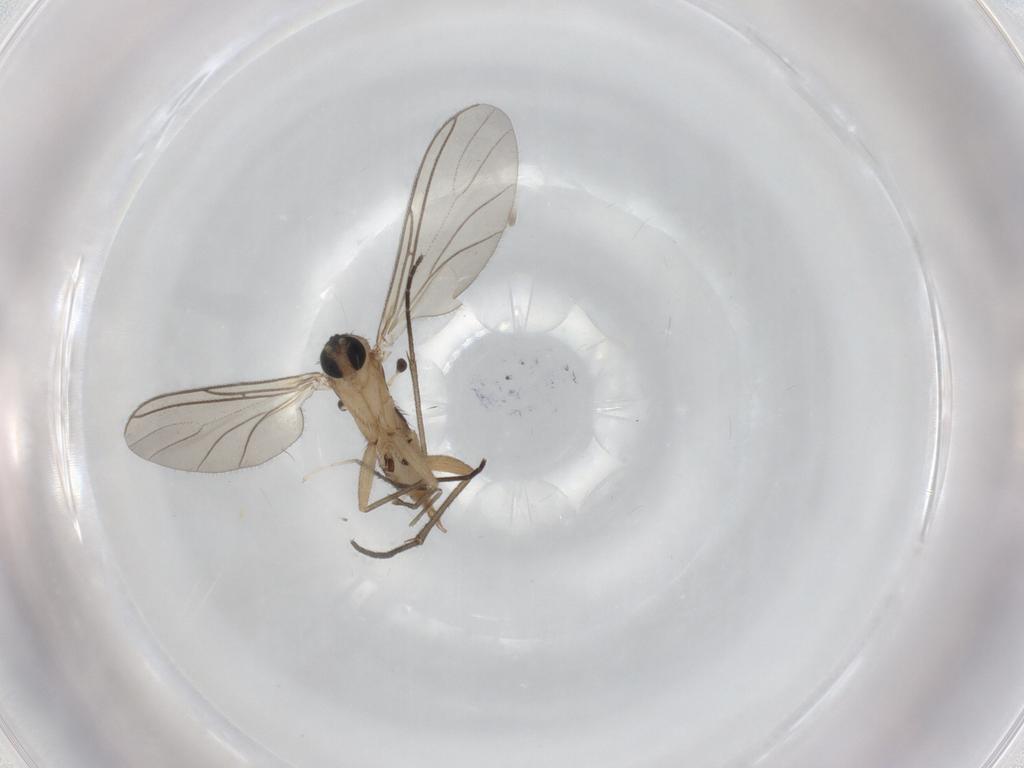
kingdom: Animalia
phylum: Arthropoda
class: Insecta
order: Diptera
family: Sciaridae
